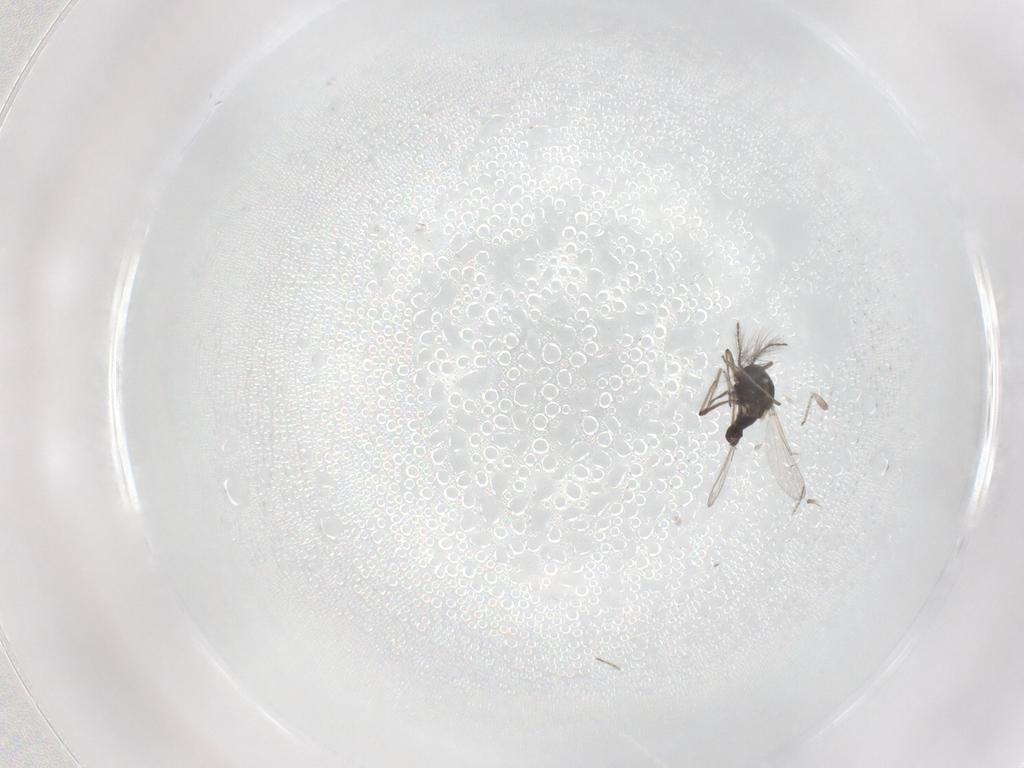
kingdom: Animalia
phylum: Arthropoda
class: Insecta
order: Diptera
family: Ceratopogonidae
